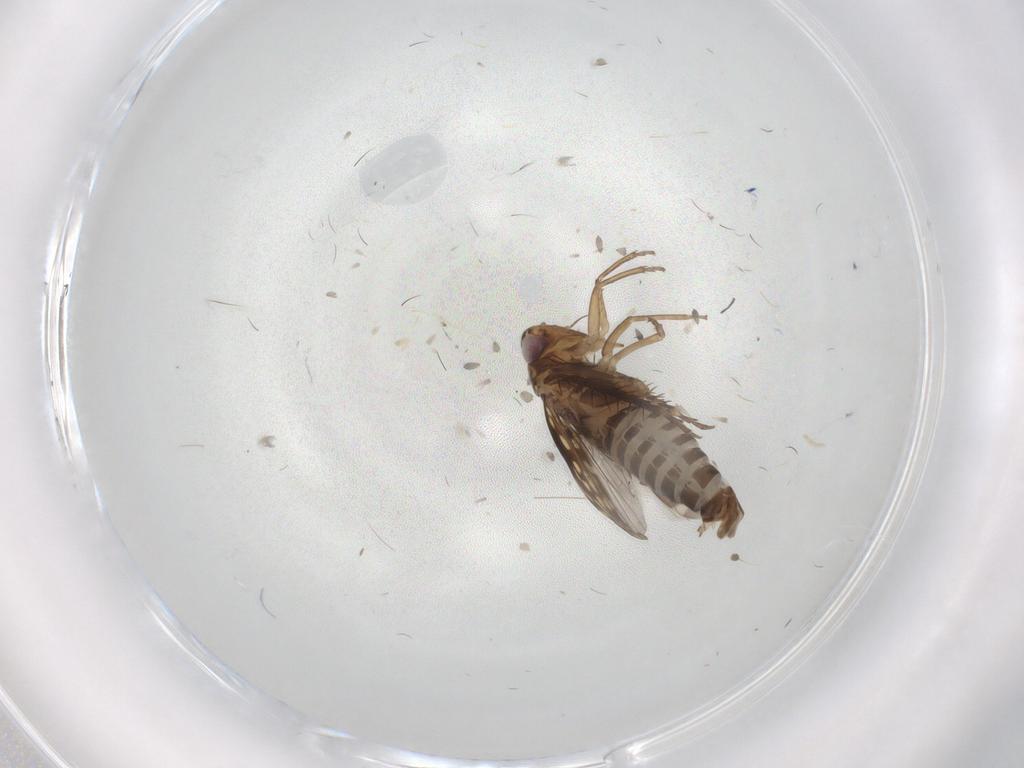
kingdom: Animalia
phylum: Arthropoda
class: Insecta
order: Hemiptera
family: Cicadellidae
